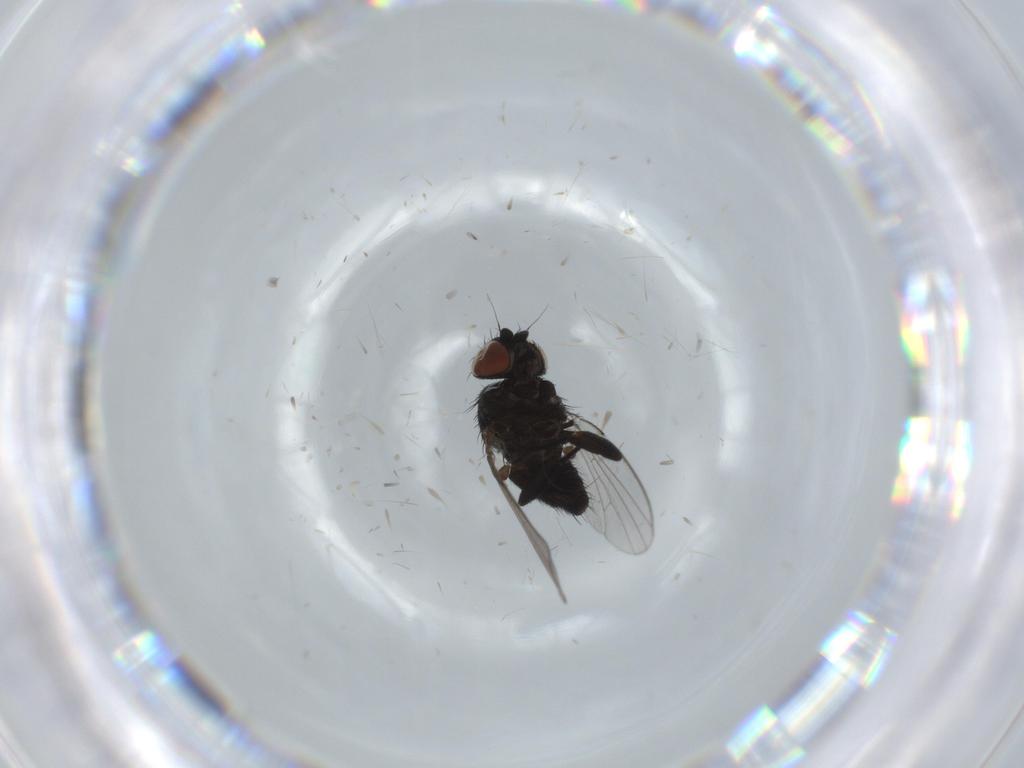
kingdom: Animalia
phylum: Arthropoda
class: Insecta
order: Diptera
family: Milichiidae
